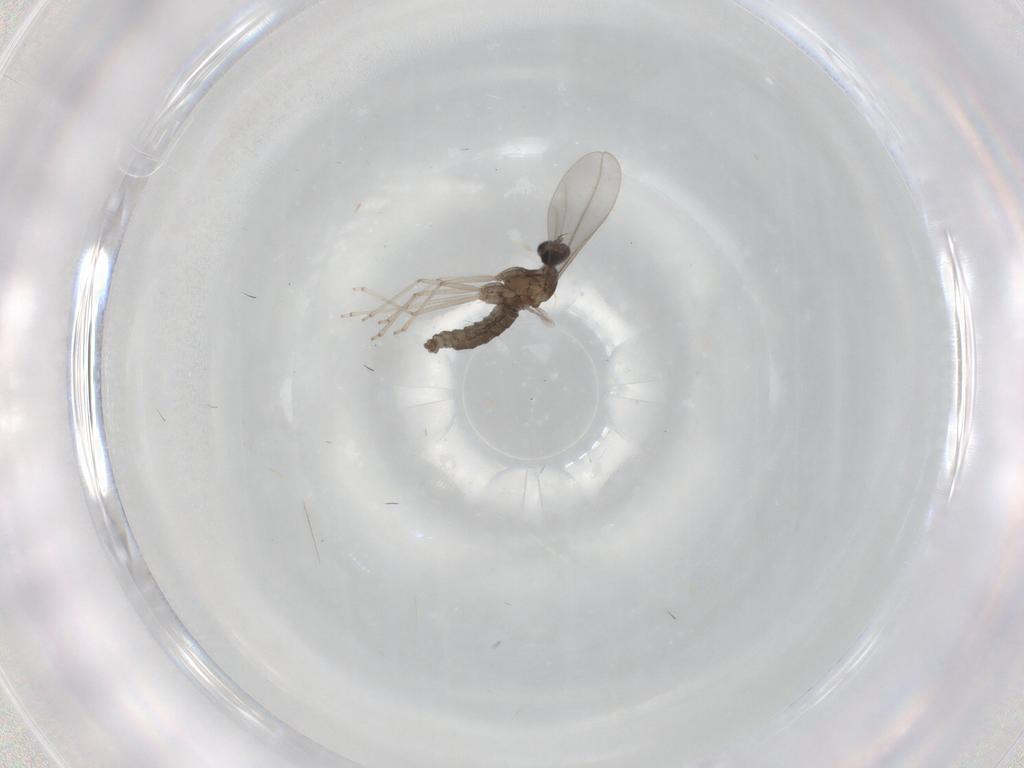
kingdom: Animalia
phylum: Arthropoda
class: Insecta
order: Diptera
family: Cecidomyiidae
